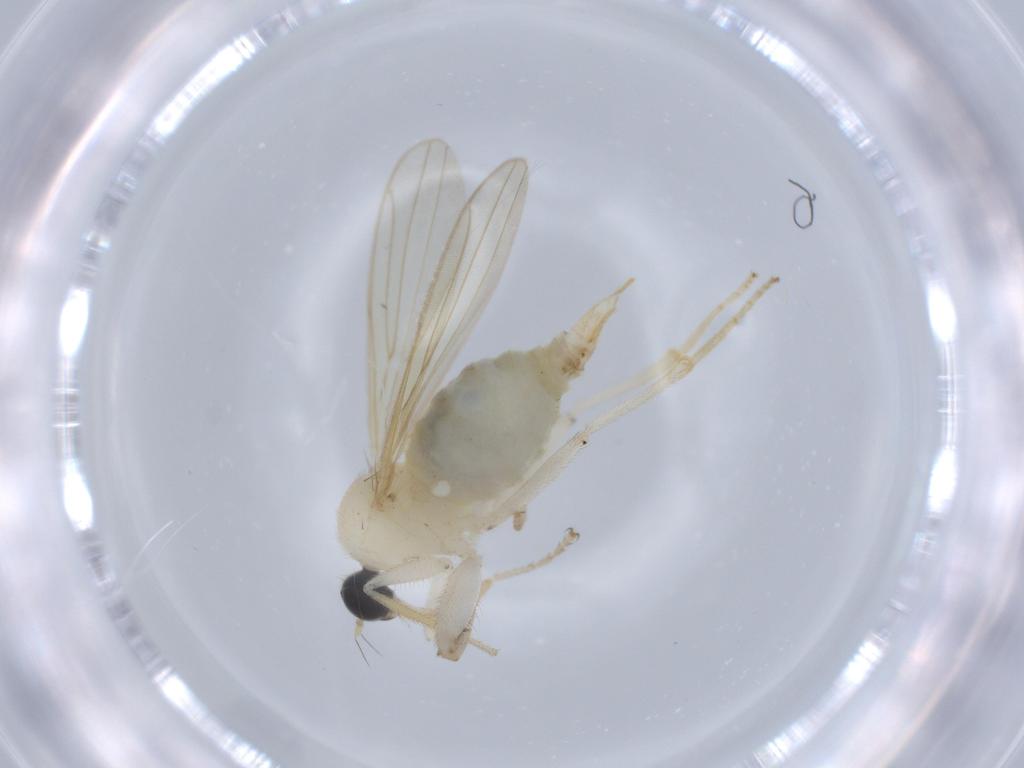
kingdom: Animalia
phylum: Arthropoda
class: Insecta
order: Diptera
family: Hybotidae
